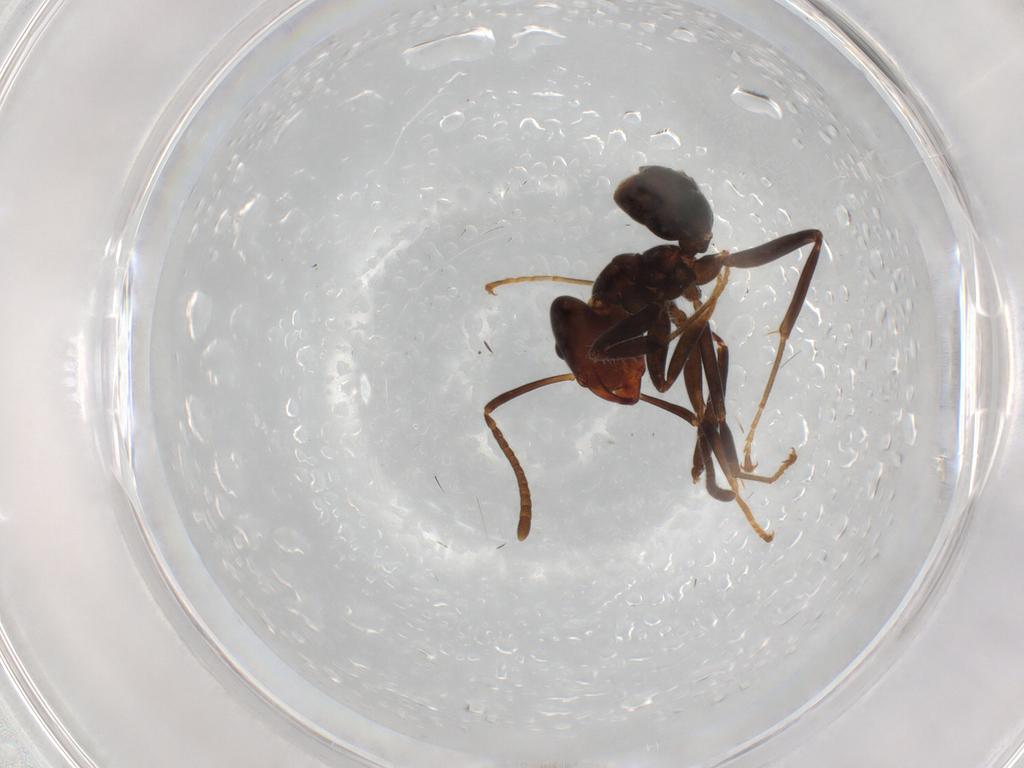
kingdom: Animalia
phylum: Arthropoda
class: Insecta
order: Hymenoptera
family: Formicidae
